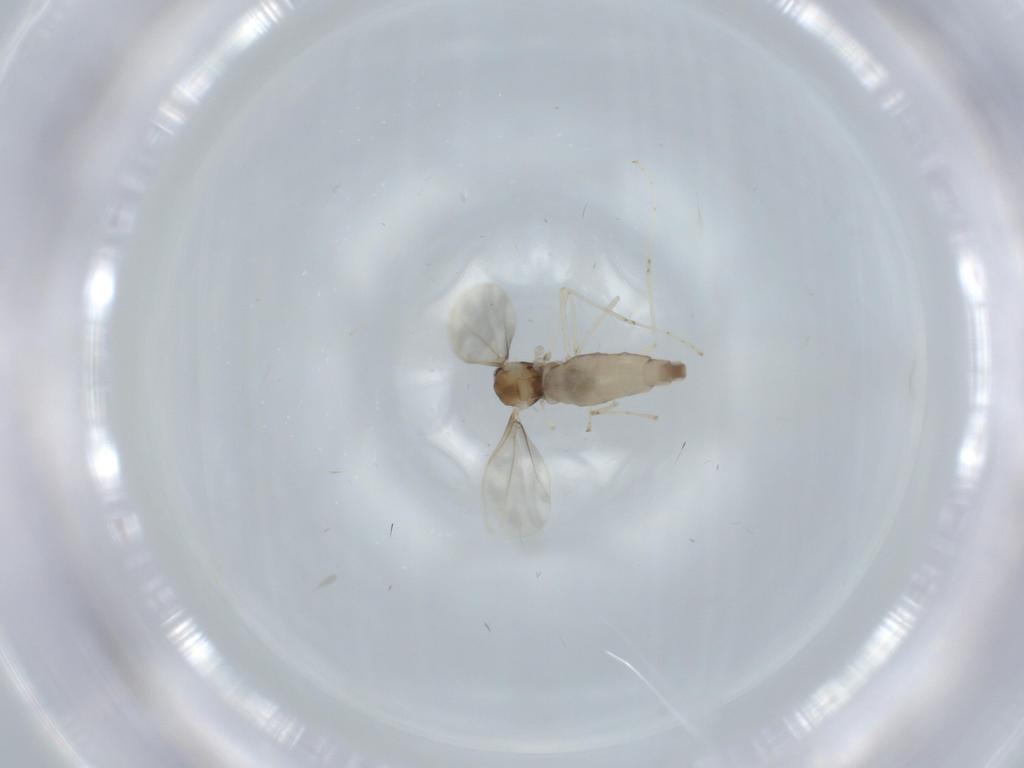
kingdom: Animalia
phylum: Arthropoda
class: Insecta
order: Diptera
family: Cecidomyiidae
